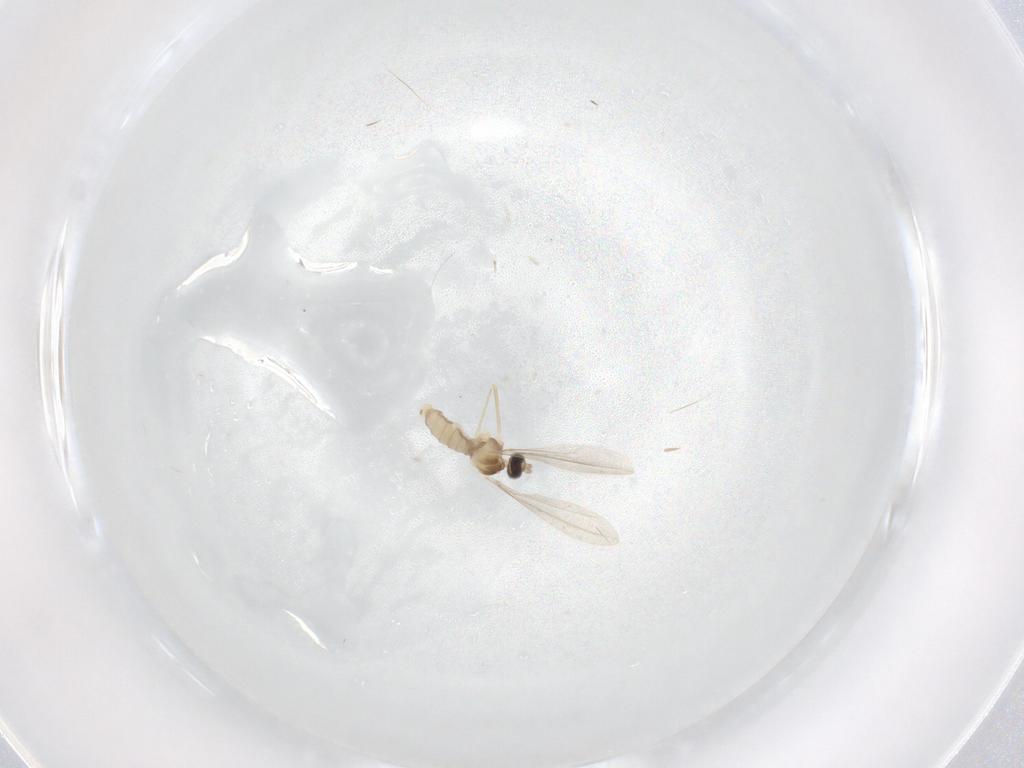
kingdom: Animalia
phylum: Arthropoda
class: Insecta
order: Diptera
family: Cecidomyiidae
